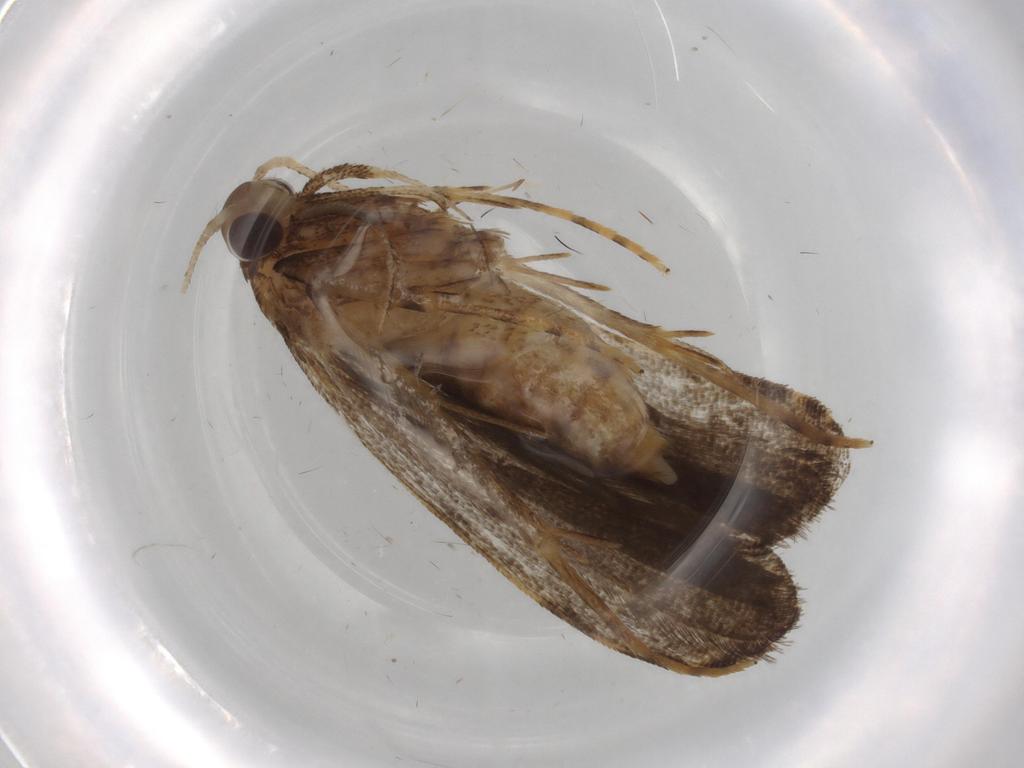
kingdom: Animalia
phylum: Arthropoda
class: Insecta
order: Lepidoptera
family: Autostichidae
